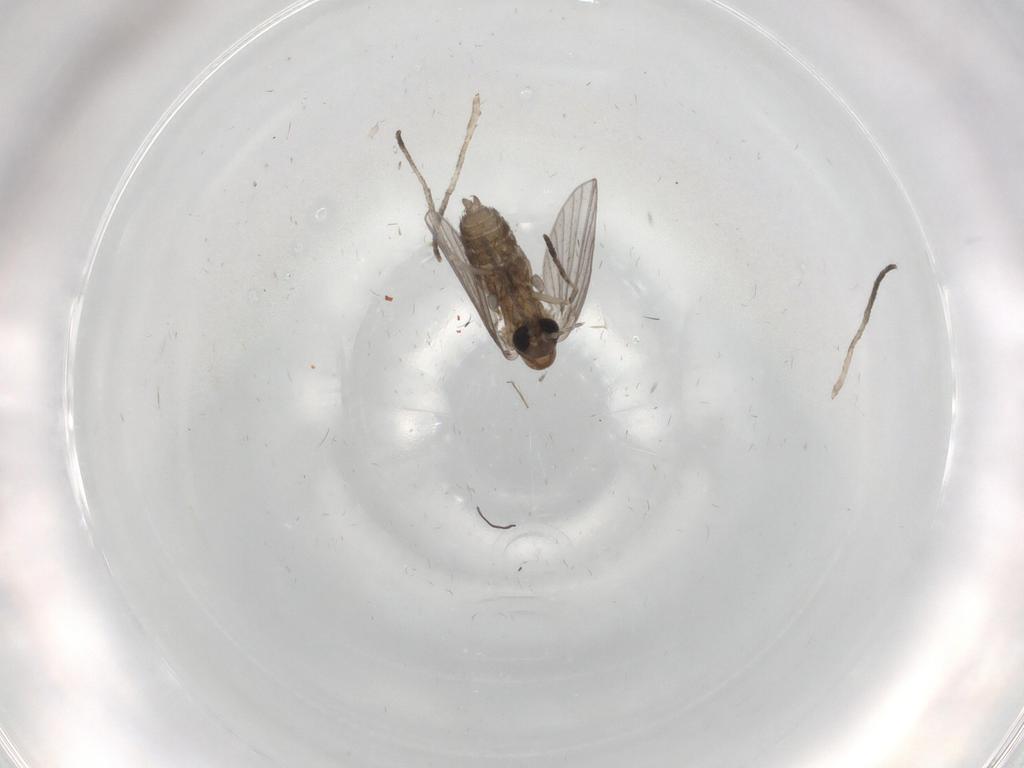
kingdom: Animalia
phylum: Arthropoda
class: Insecta
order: Diptera
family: Psychodidae
